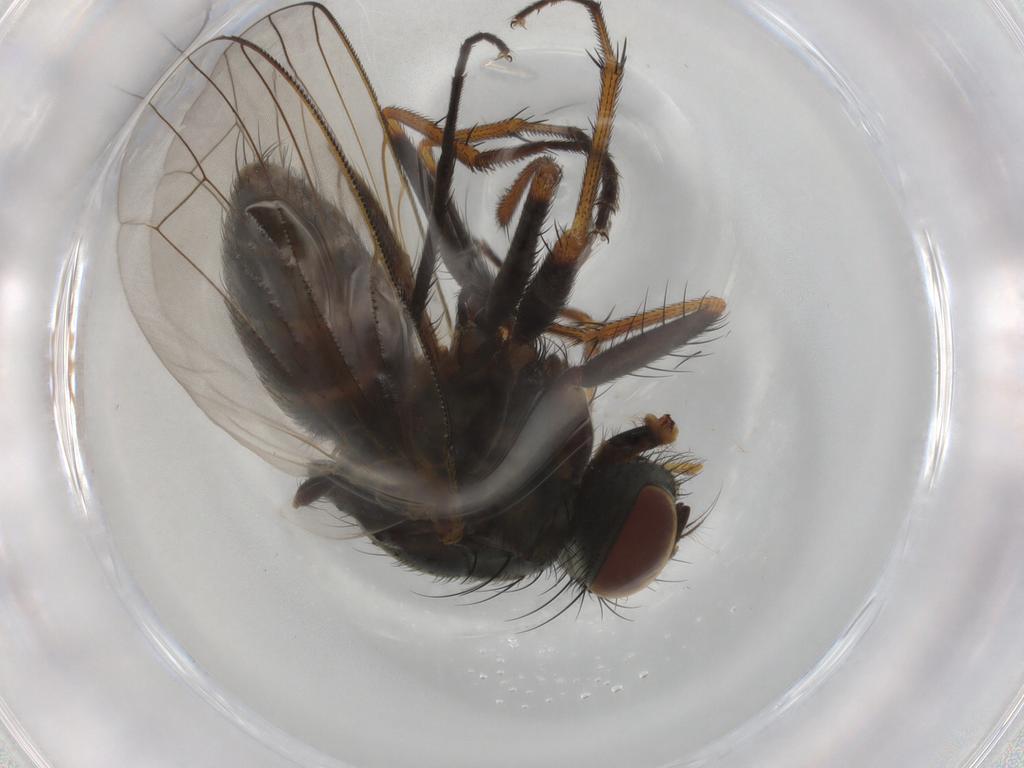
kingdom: Animalia
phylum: Arthropoda
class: Insecta
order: Diptera
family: Muscidae
